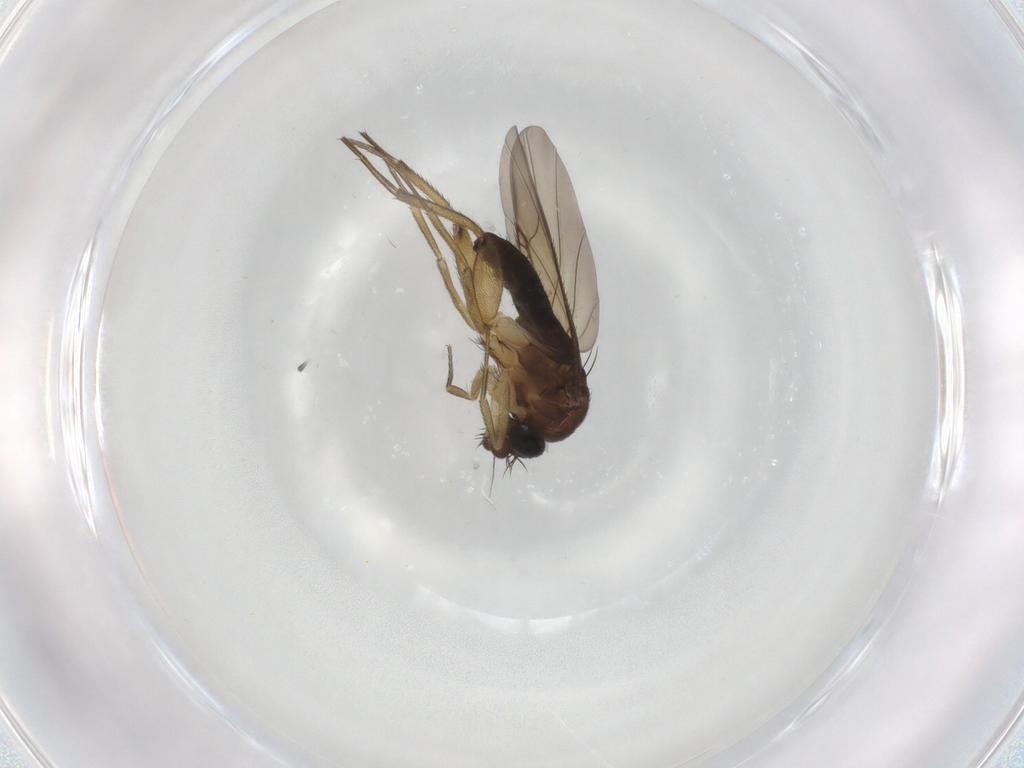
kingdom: Animalia
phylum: Arthropoda
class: Insecta
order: Diptera
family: Phoridae
